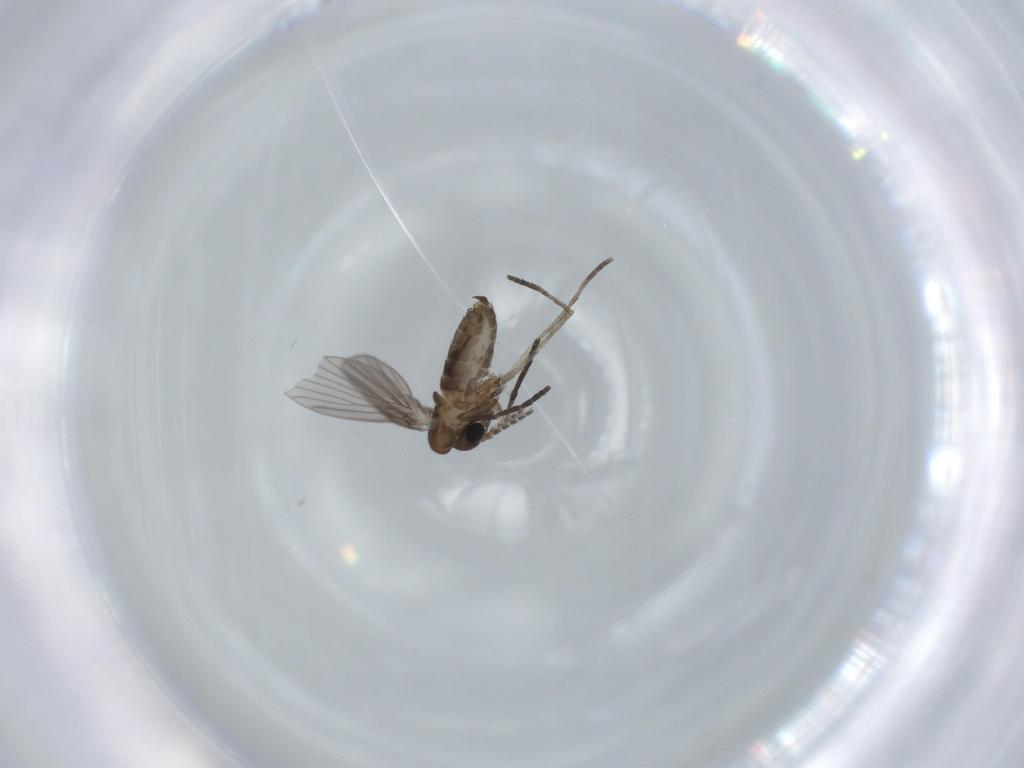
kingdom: Animalia
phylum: Arthropoda
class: Insecta
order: Diptera
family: Psychodidae
